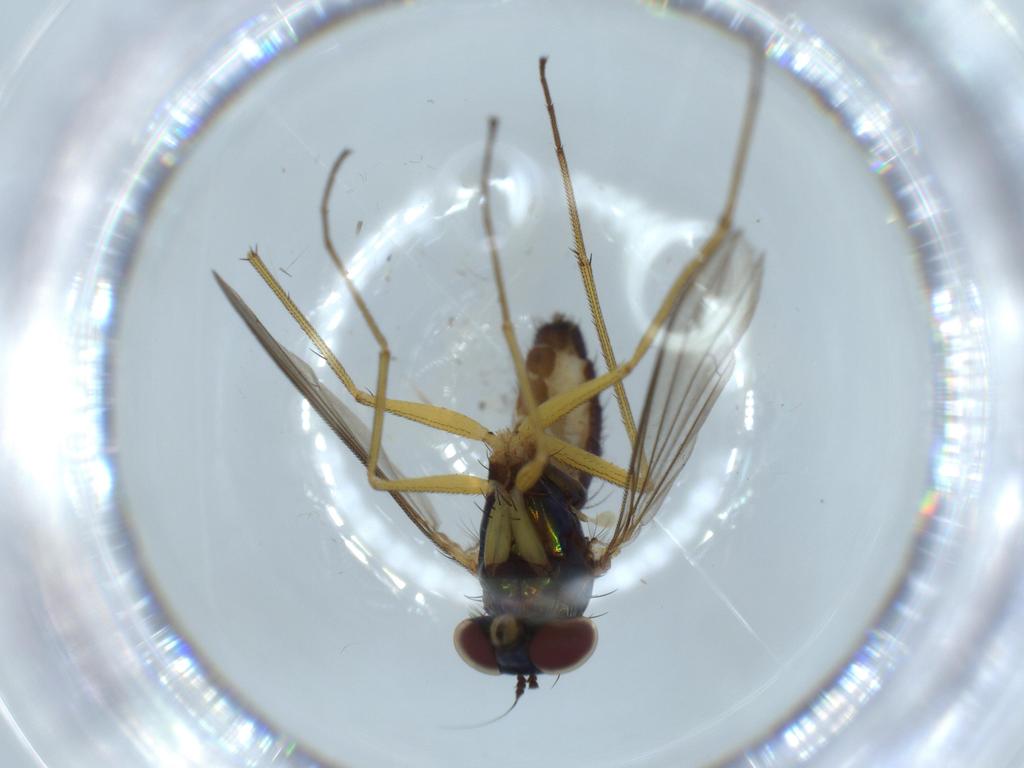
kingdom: Animalia
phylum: Arthropoda
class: Insecta
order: Diptera
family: Dolichopodidae
